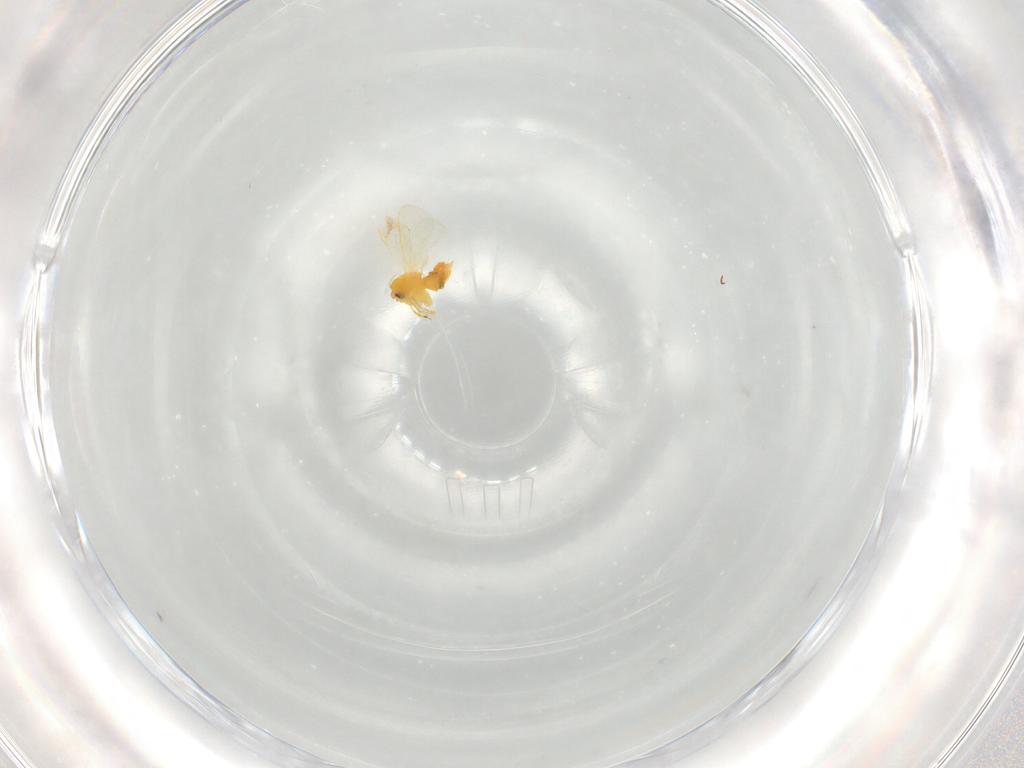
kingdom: Animalia
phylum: Arthropoda
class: Insecta
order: Hemiptera
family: Aleyrodidae
